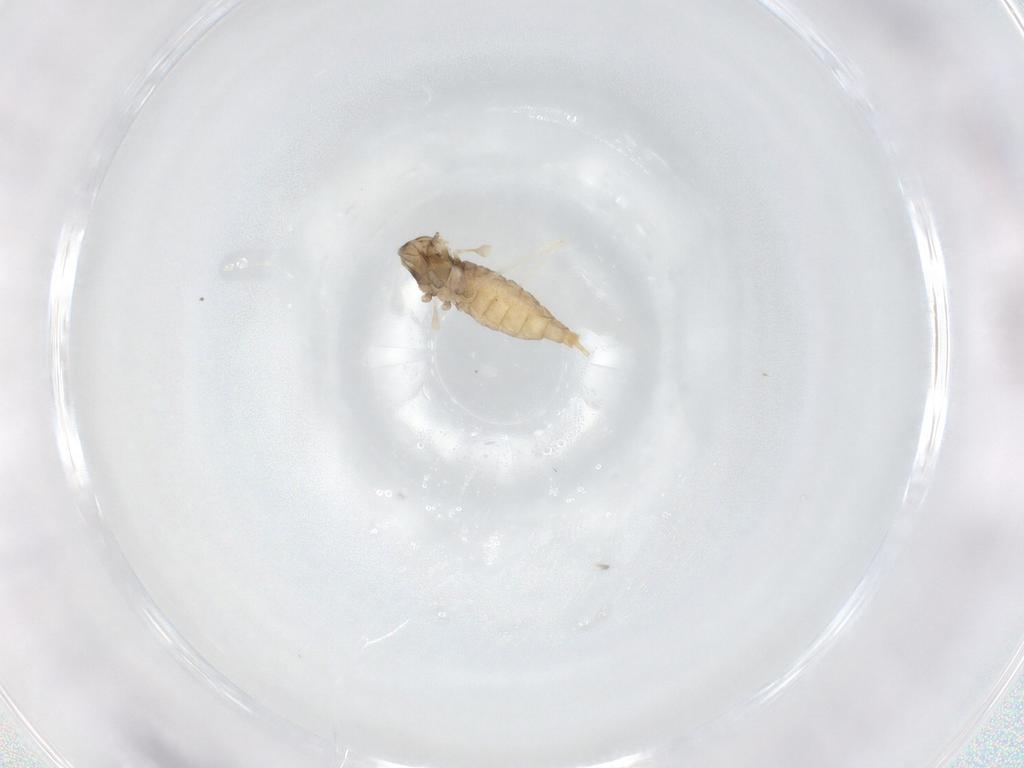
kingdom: Animalia
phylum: Arthropoda
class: Insecta
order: Diptera
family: Cecidomyiidae
